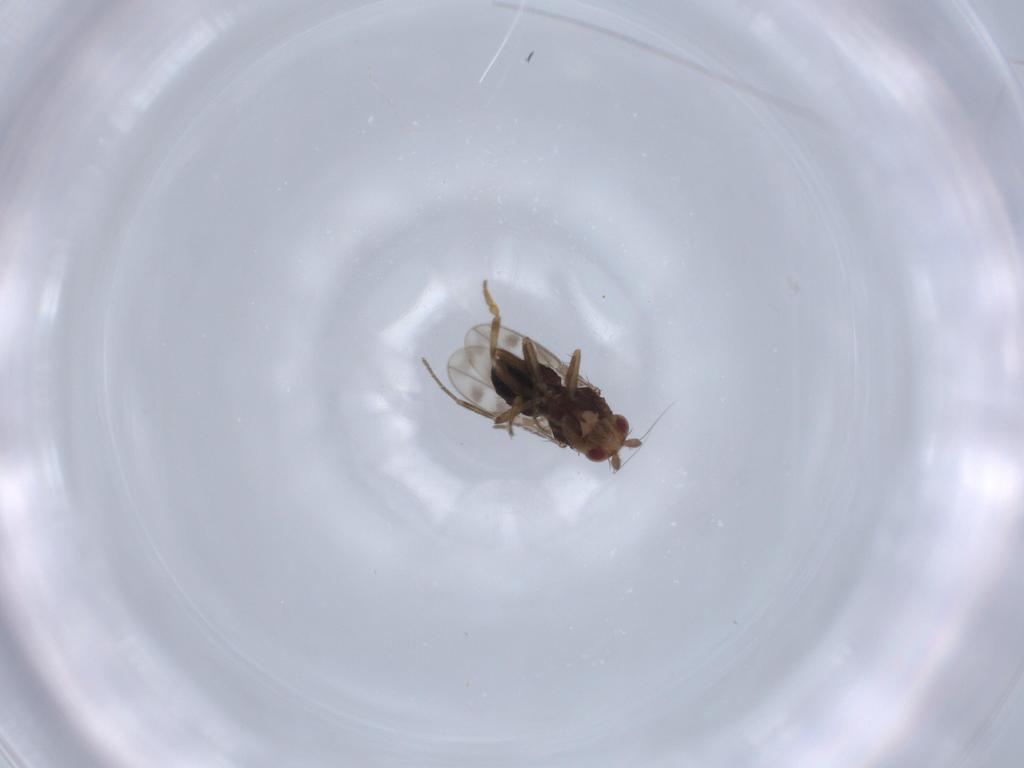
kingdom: Animalia
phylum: Arthropoda
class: Insecta
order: Diptera
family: Sphaeroceridae
